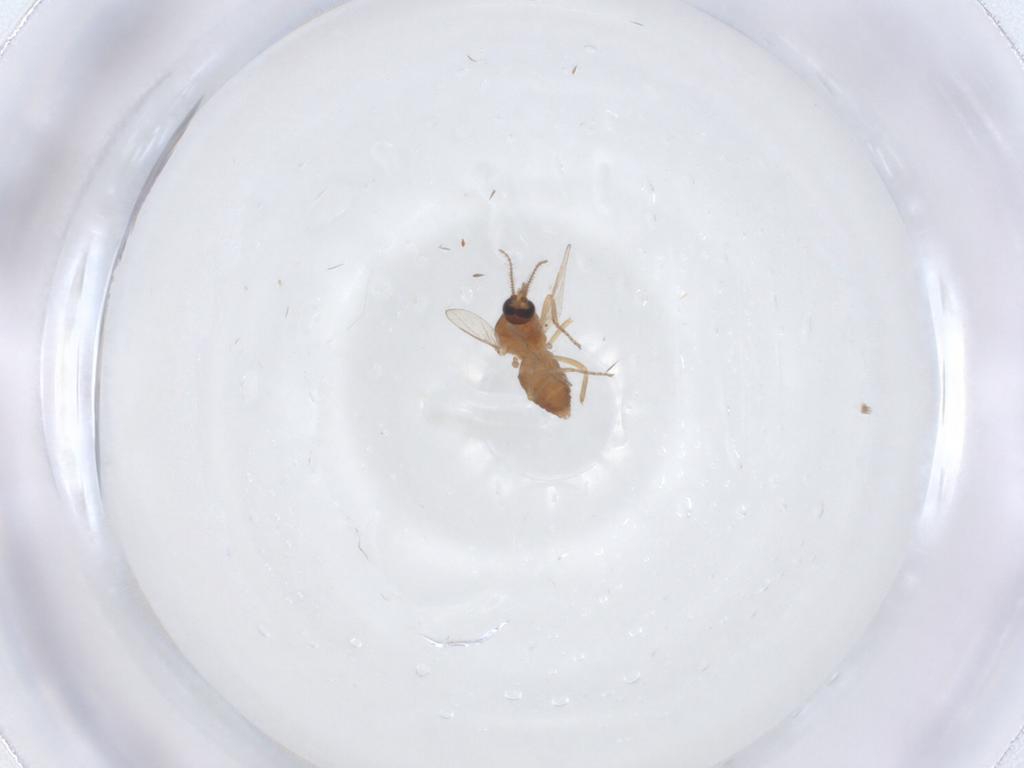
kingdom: Animalia
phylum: Arthropoda
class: Insecta
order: Diptera
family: Ceratopogonidae
